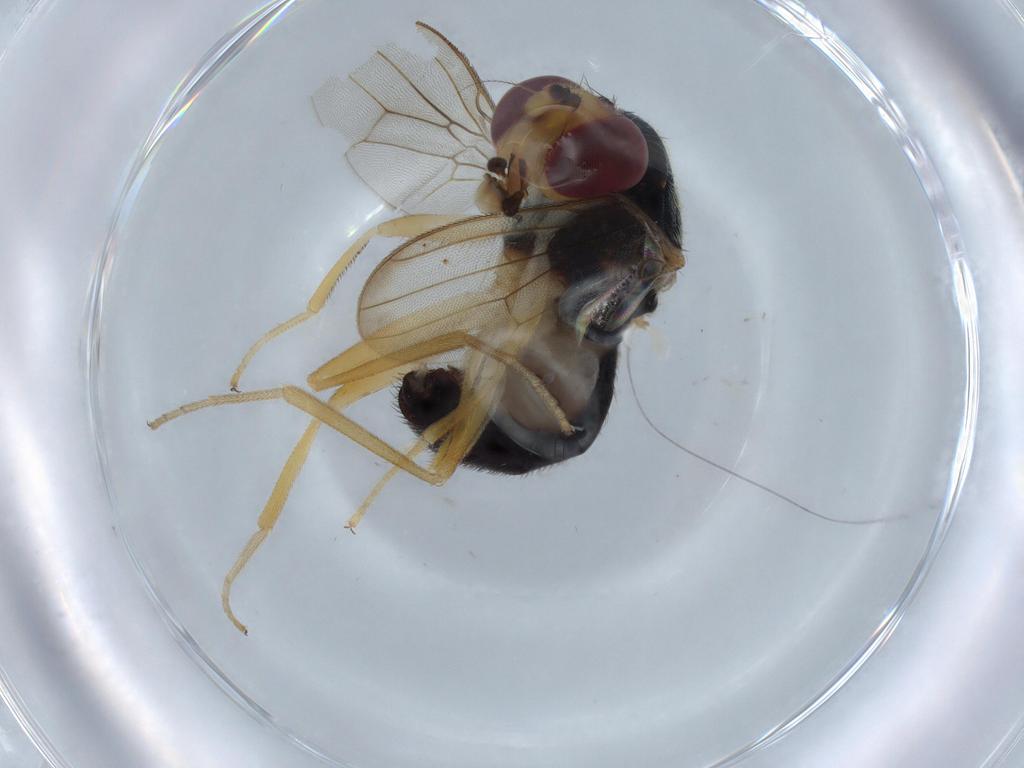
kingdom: Animalia
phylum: Arthropoda
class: Insecta
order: Diptera
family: Psilidae
